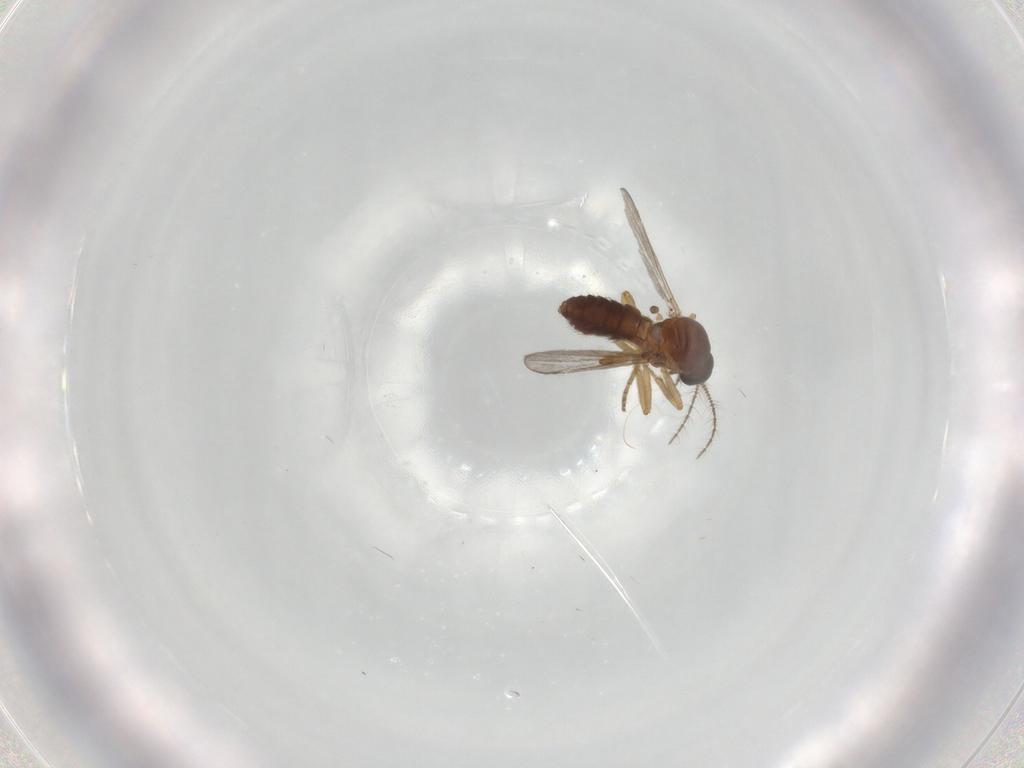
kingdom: Animalia
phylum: Arthropoda
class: Insecta
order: Diptera
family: Ceratopogonidae
